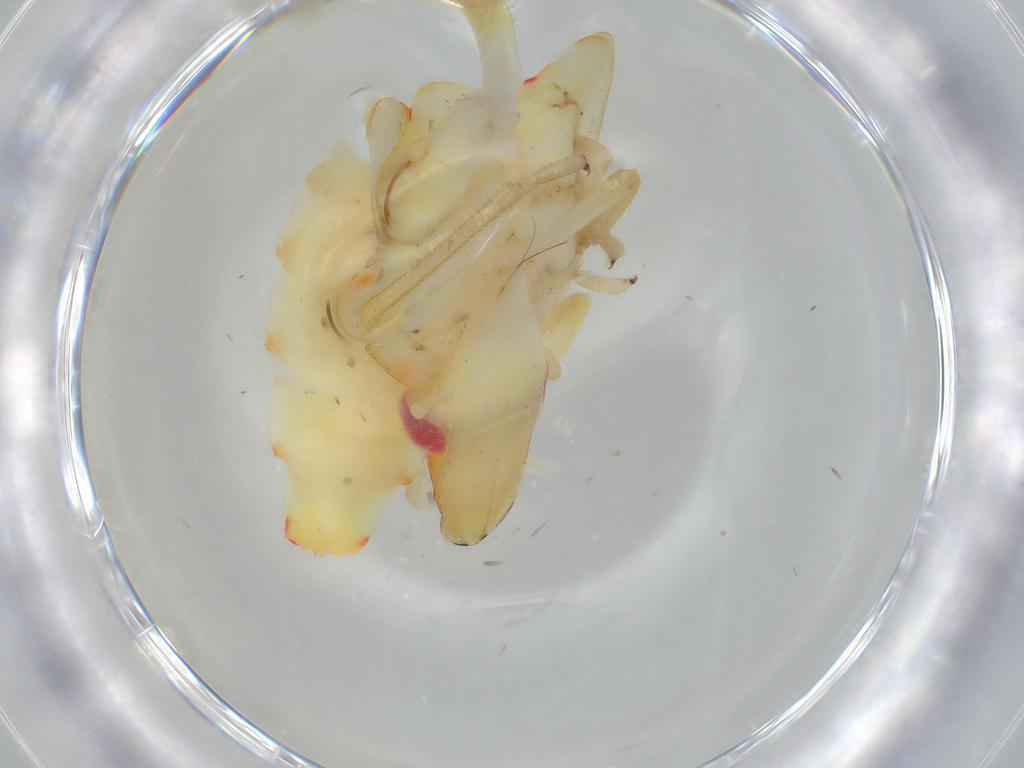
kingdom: Animalia
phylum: Arthropoda
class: Insecta
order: Hemiptera
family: Tropiduchidae
